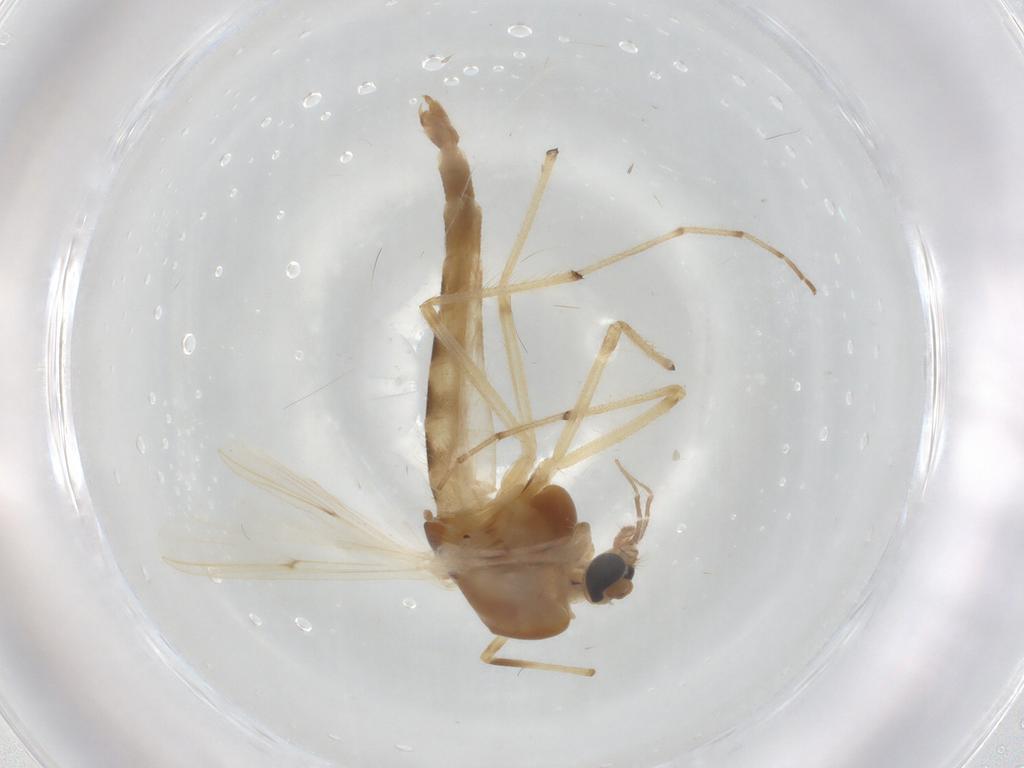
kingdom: Animalia
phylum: Arthropoda
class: Insecta
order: Diptera
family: Chironomidae
